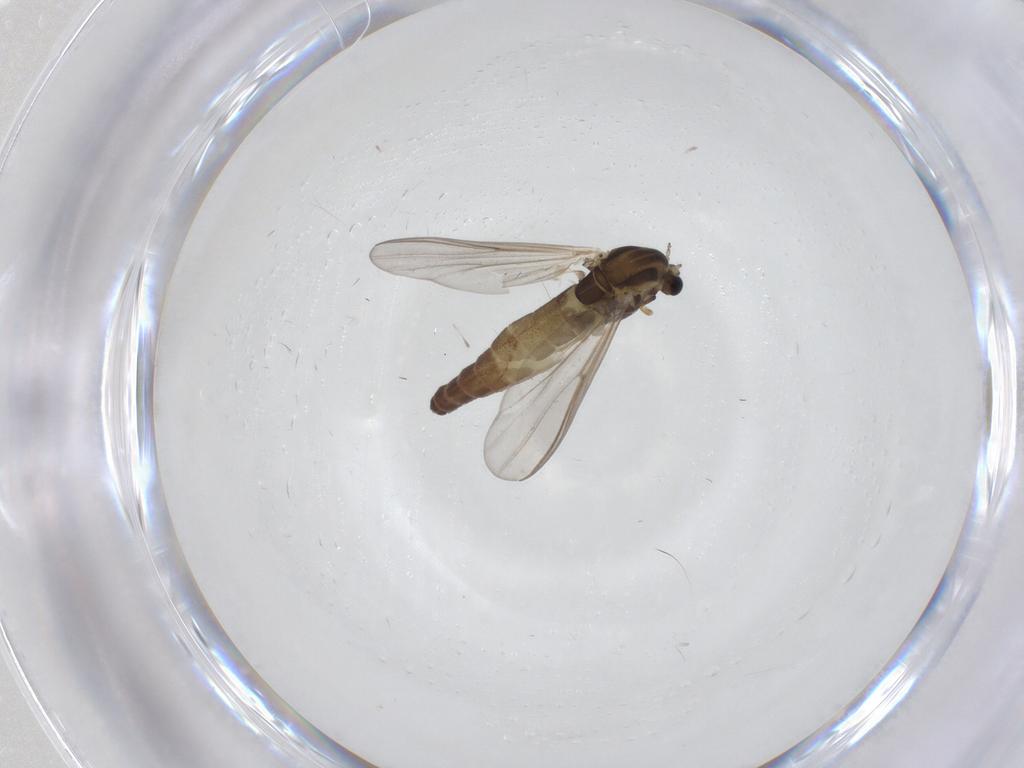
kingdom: Animalia
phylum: Arthropoda
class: Insecta
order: Diptera
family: Chironomidae
